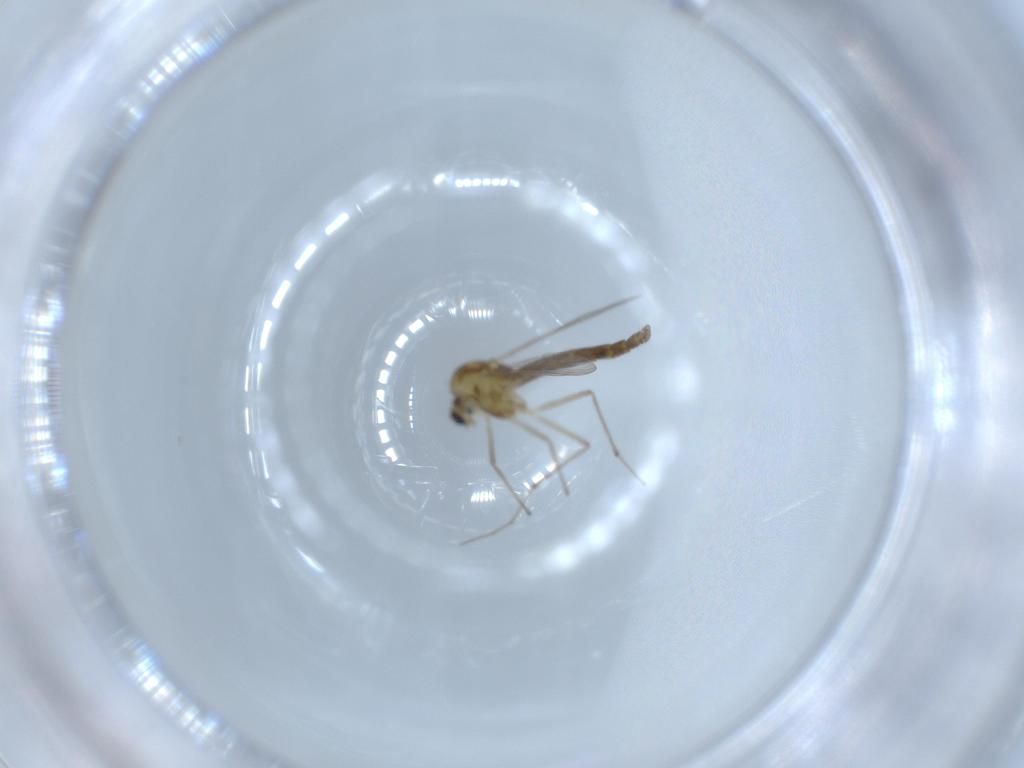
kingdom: Animalia
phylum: Arthropoda
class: Insecta
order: Diptera
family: Chironomidae
